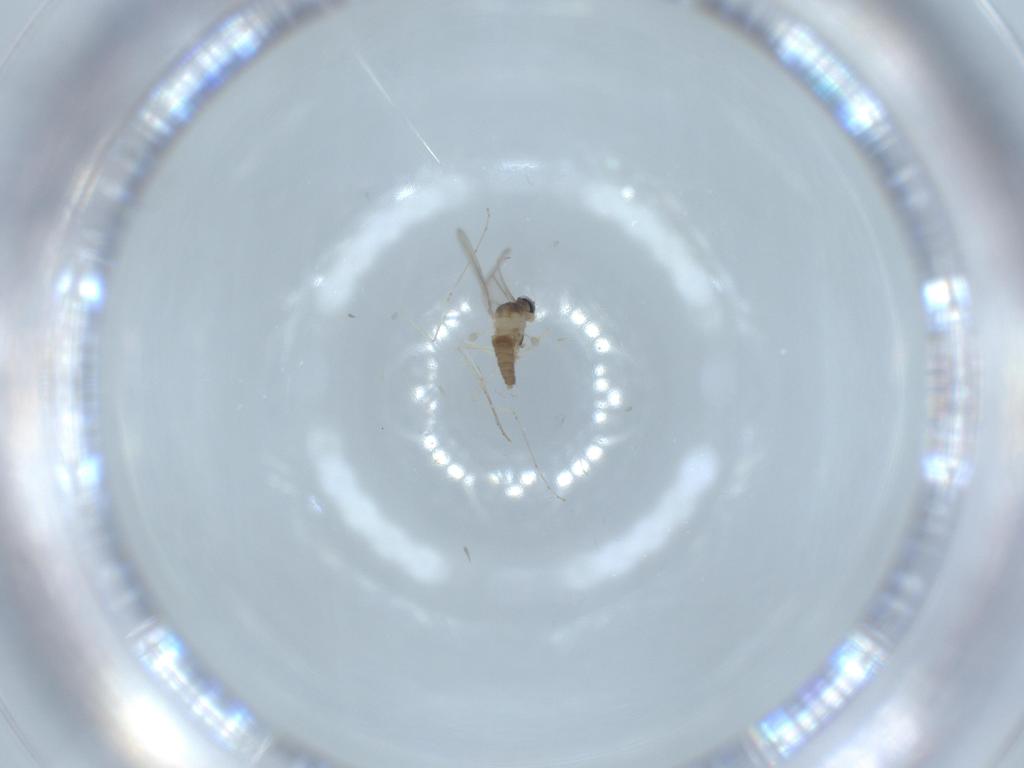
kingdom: Animalia
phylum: Arthropoda
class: Insecta
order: Diptera
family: Cecidomyiidae
